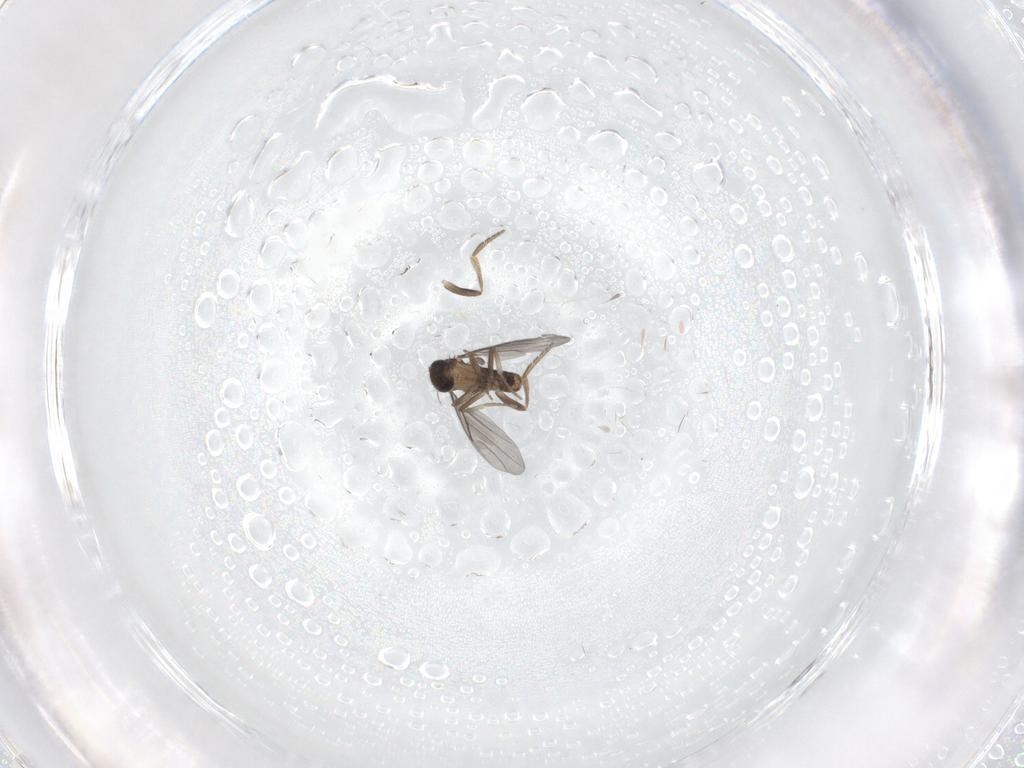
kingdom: Animalia
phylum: Arthropoda
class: Insecta
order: Diptera
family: Limoniidae
